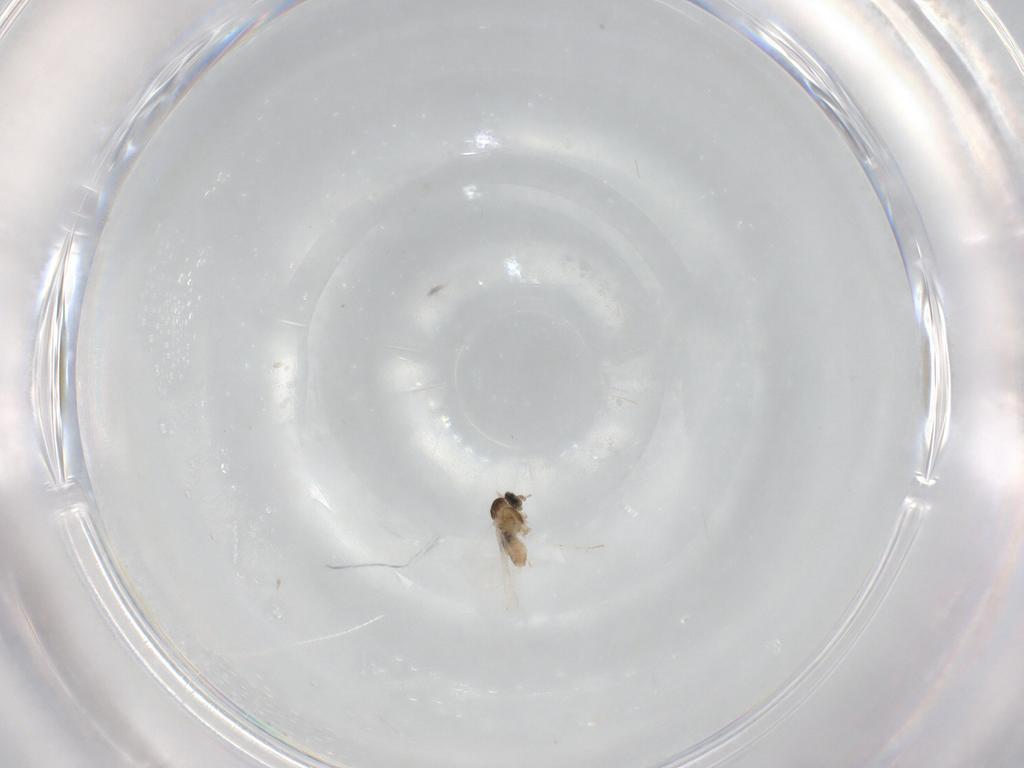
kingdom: Animalia
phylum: Arthropoda
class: Insecta
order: Diptera
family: Cecidomyiidae
